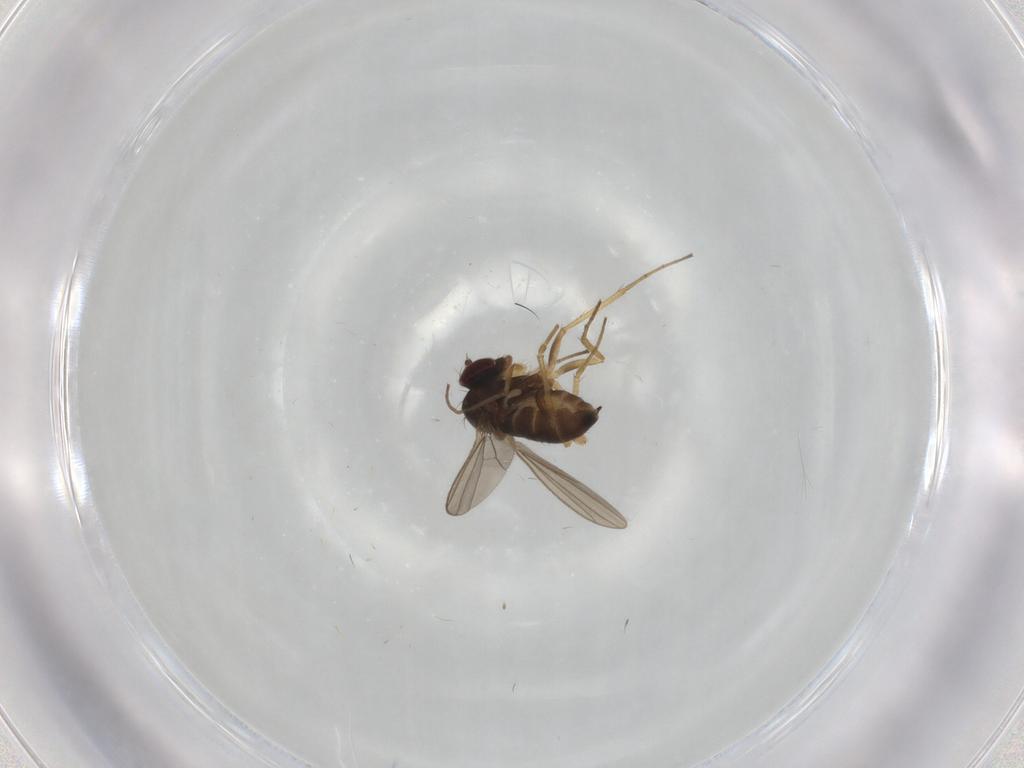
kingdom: Animalia
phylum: Arthropoda
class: Insecta
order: Diptera
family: Dolichopodidae
